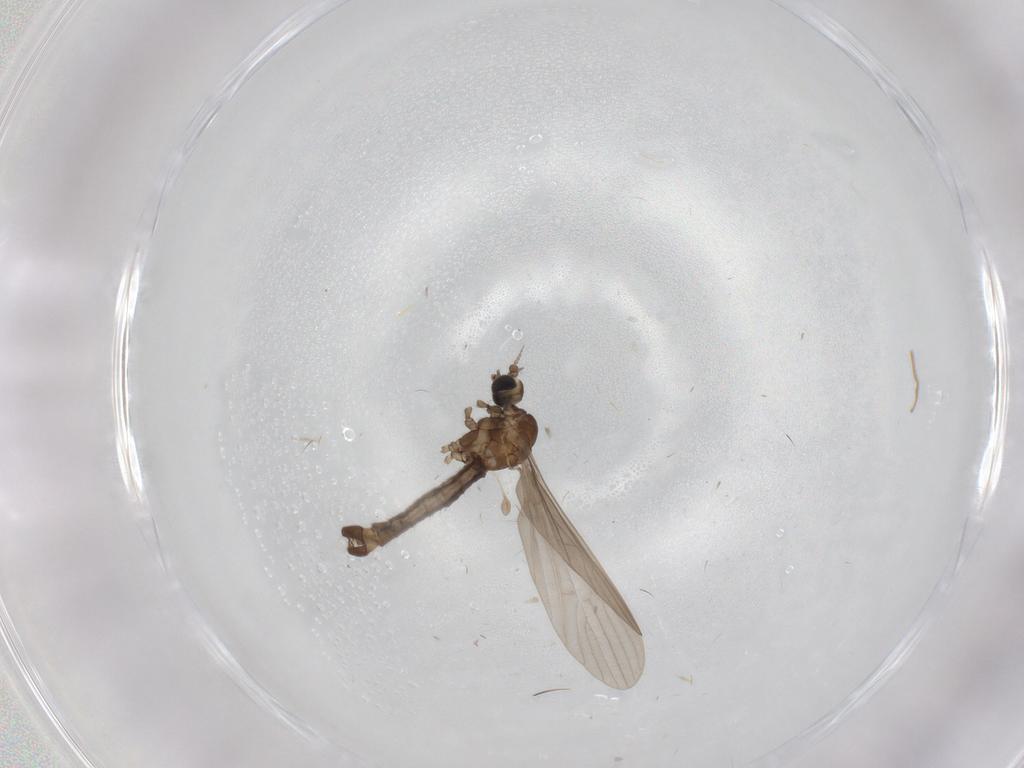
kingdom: Animalia
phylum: Arthropoda
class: Insecta
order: Diptera
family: Limoniidae
